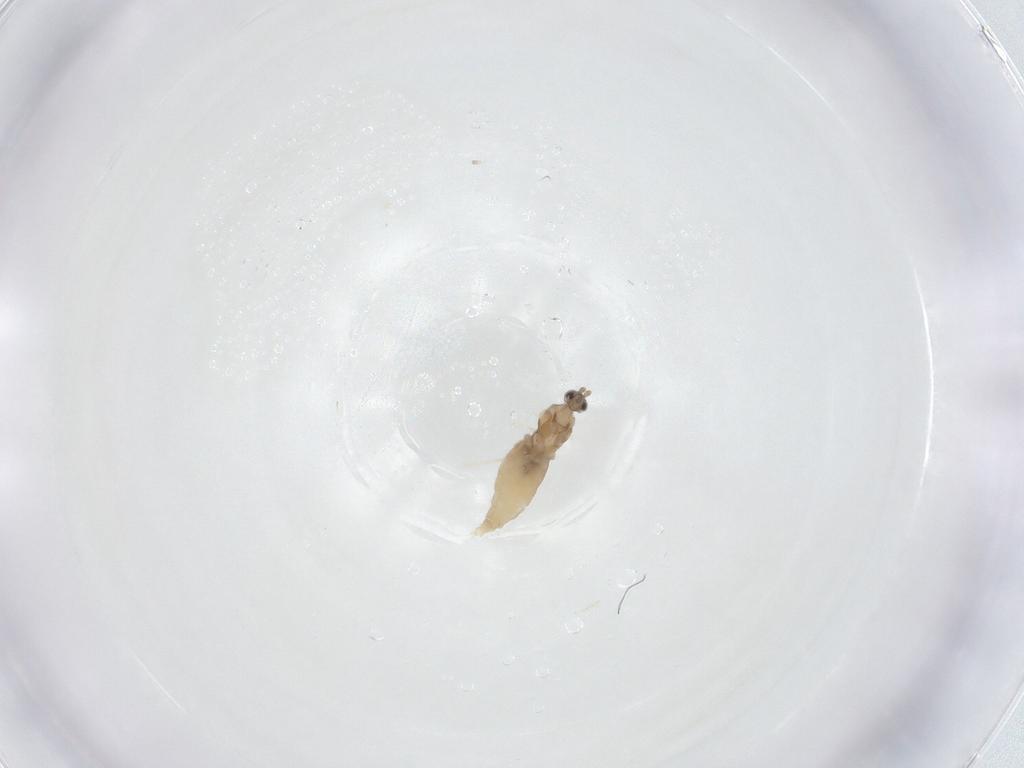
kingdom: Animalia
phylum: Arthropoda
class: Insecta
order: Diptera
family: Cecidomyiidae
